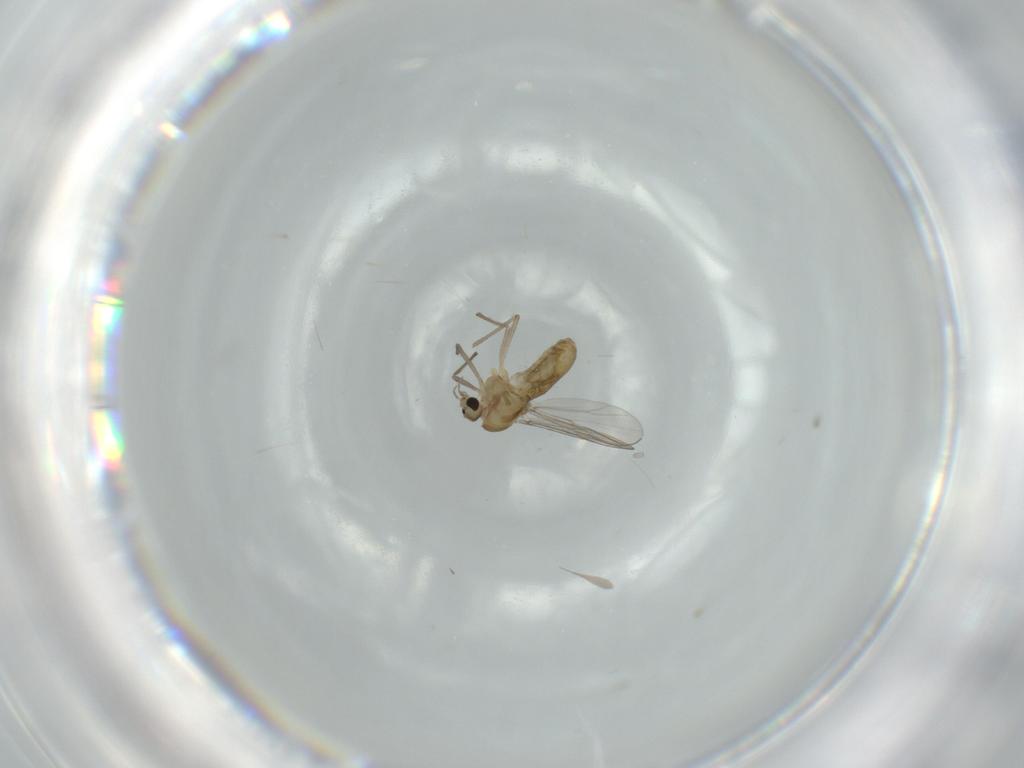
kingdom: Animalia
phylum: Arthropoda
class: Insecta
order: Diptera
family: Chironomidae
